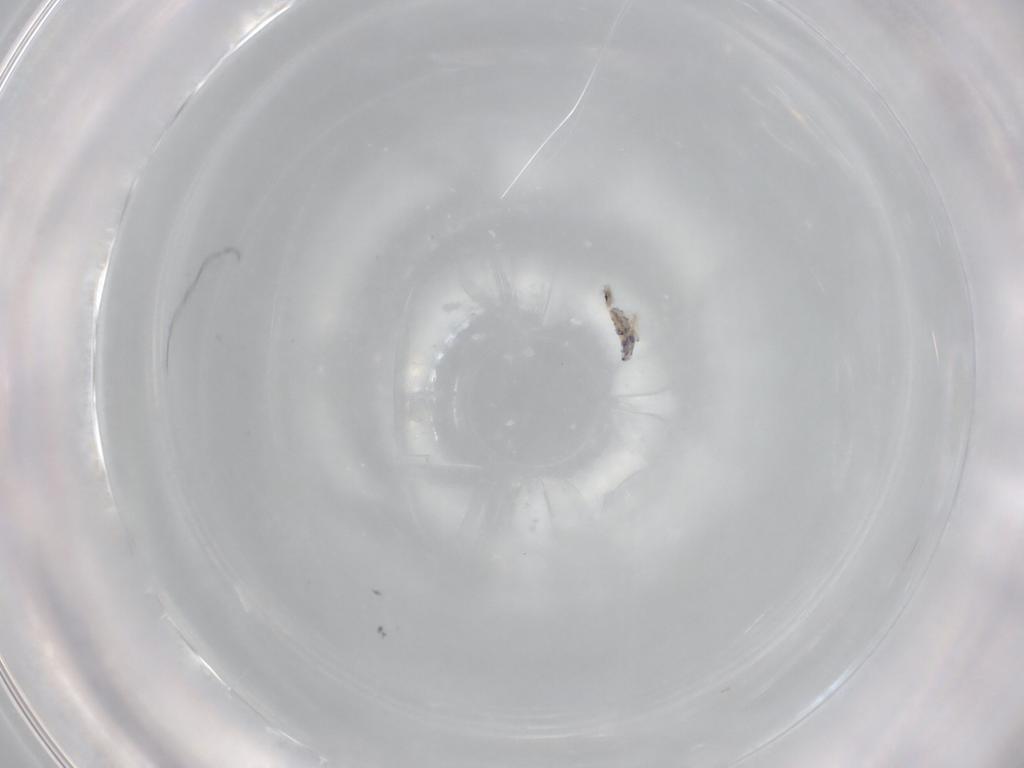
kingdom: Animalia
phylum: Arthropoda
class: Collembola
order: Entomobryomorpha
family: Entomobryidae
